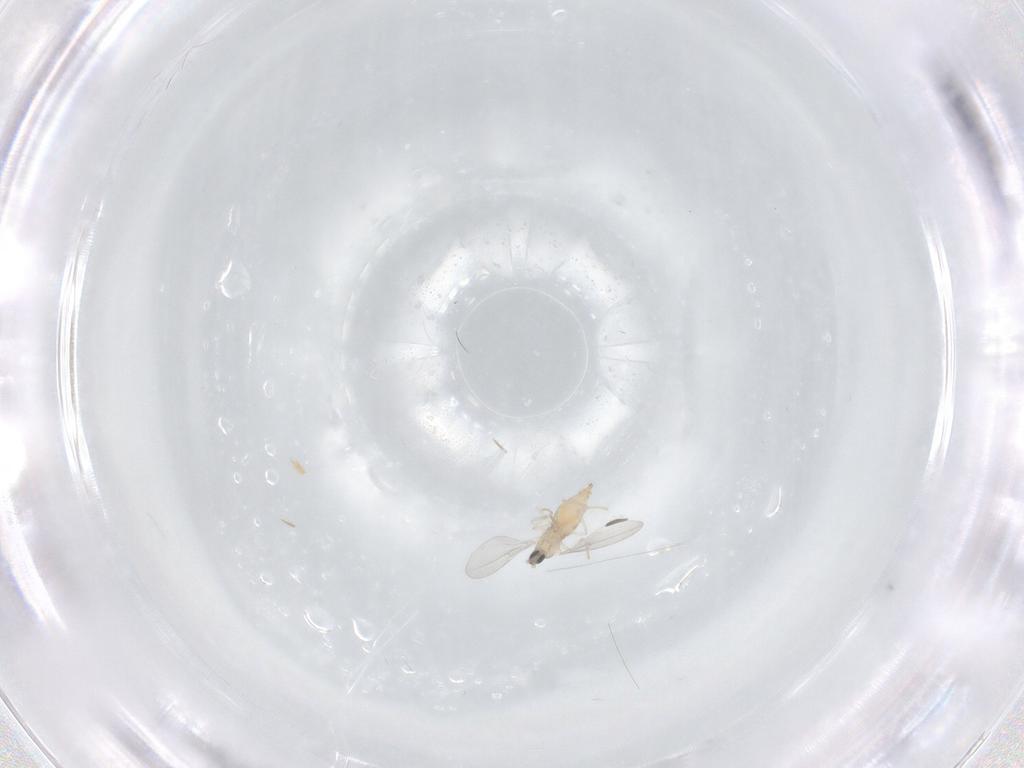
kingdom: Animalia
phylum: Arthropoda
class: Insecta
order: Diptera
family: Cecidomyiidae
